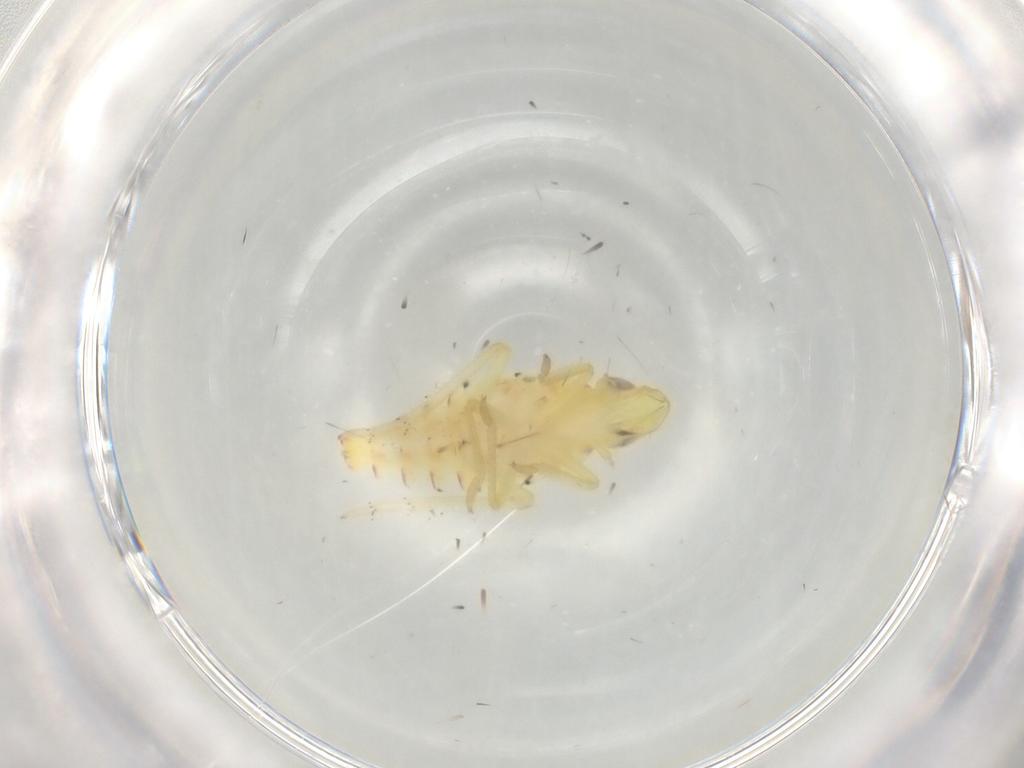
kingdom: Animalia
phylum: Arthropoda
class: Insecta
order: Hemiptera
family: Tropiduchidae
